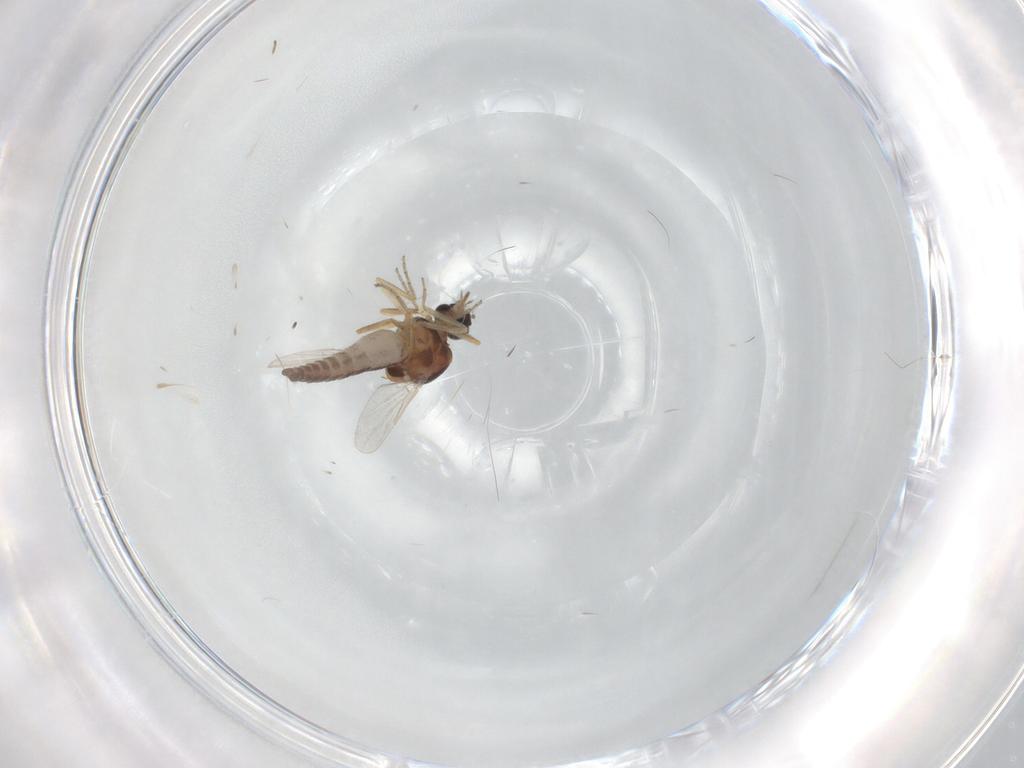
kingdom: Animalia
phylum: Arthropoda
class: Insecta
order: Diptera
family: Ceratopogonidae
